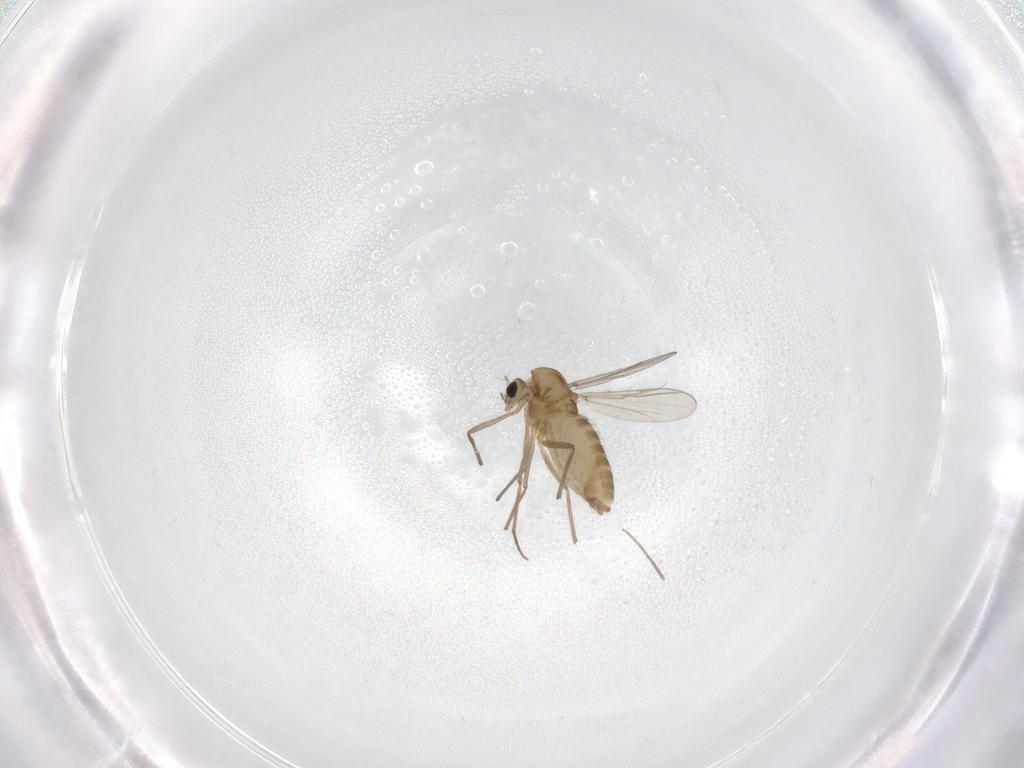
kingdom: Animalia
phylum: Arthropoda
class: Insecta
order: Diptera
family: Chironomidae
